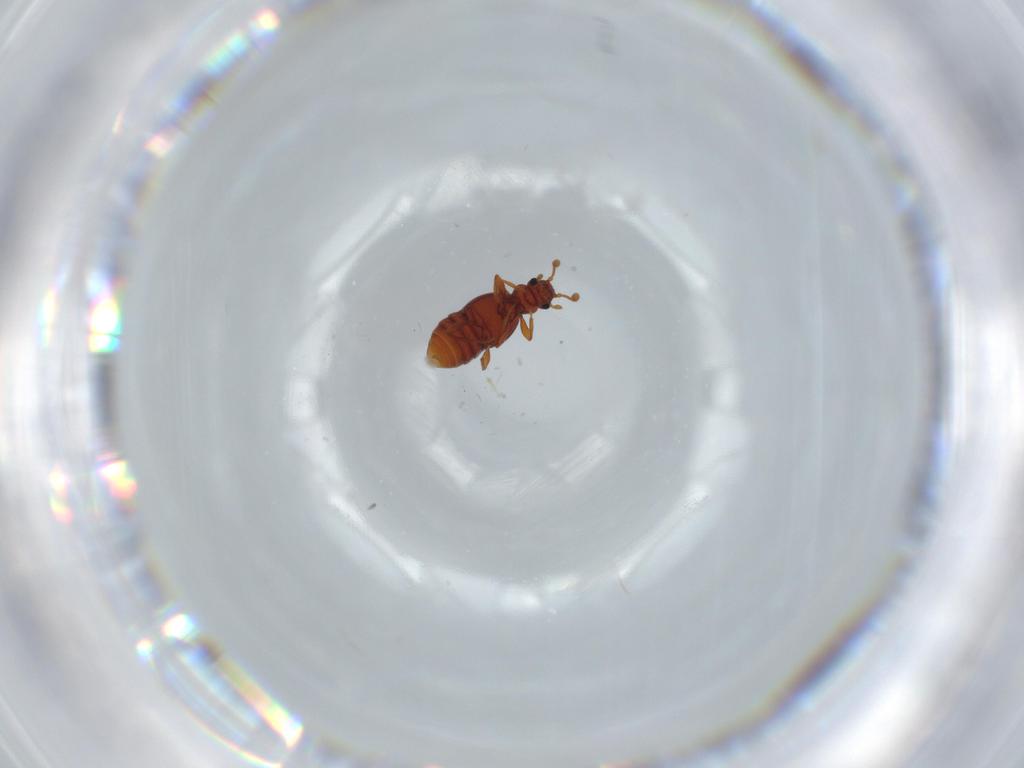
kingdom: Animalia
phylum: Arthropoda
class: Insecta
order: Coleoptera
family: Staphylinidae
